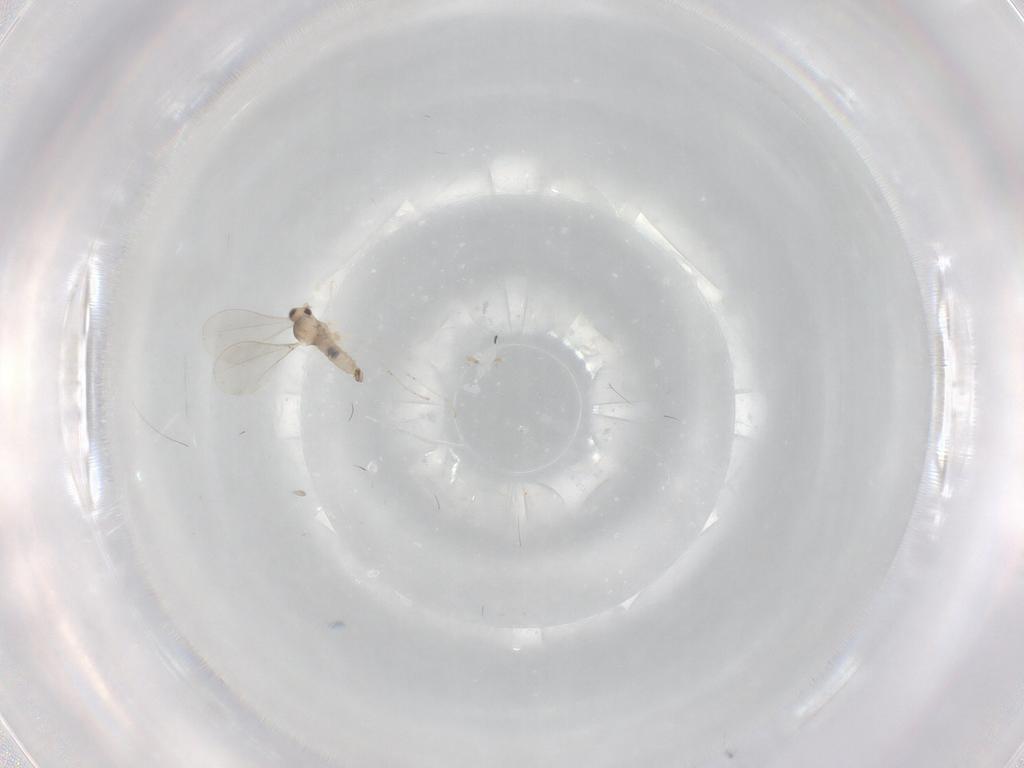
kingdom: Animalia
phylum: Arthropoda
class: Insecta
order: Diptera
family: Cecidomyiidae
